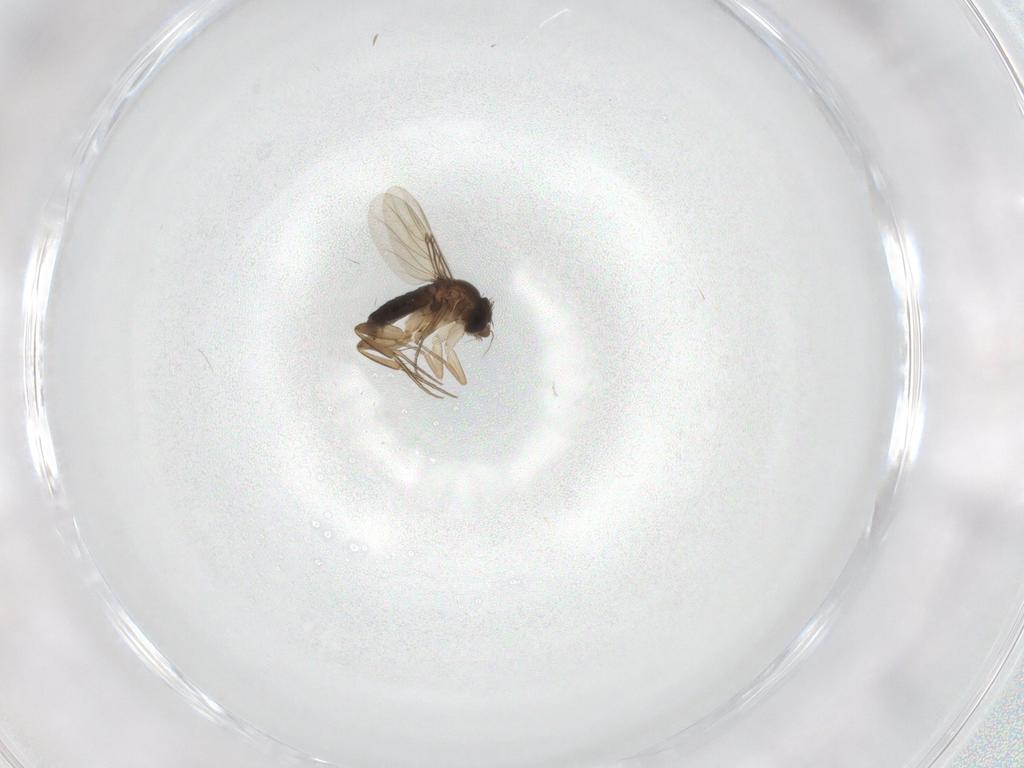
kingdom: Animalia
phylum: Arthropoda
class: Insecta
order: Diptera
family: Phoridae
